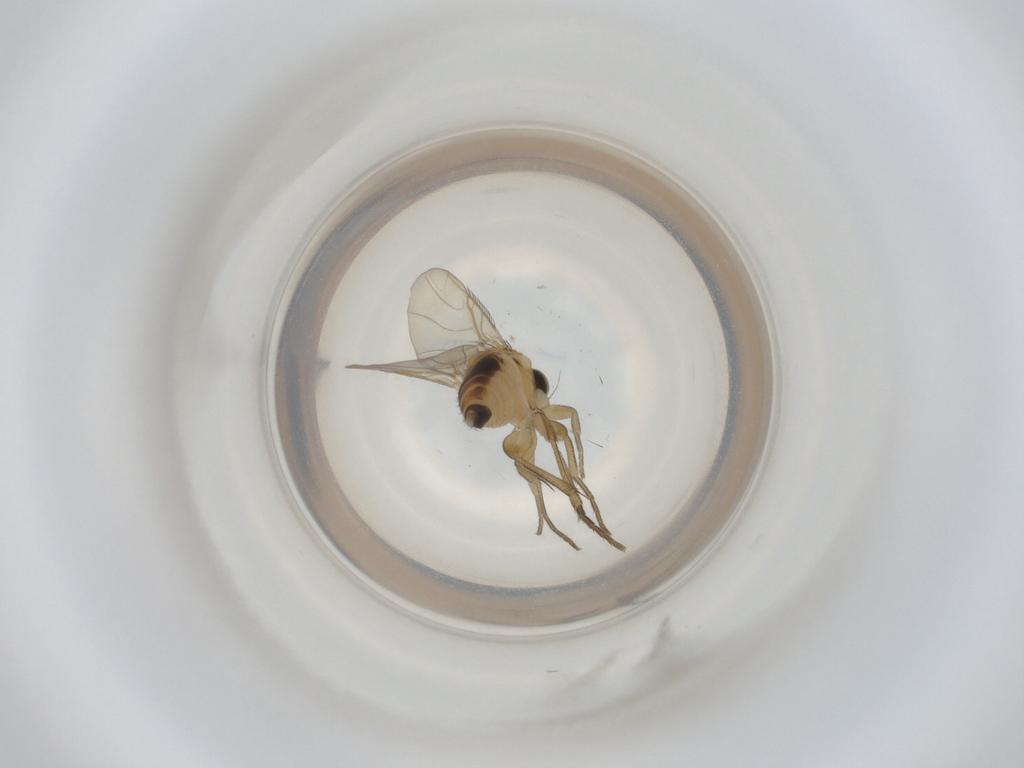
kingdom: Animalia
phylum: Arthropoda
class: Insecta
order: Diptera
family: Phoridae
